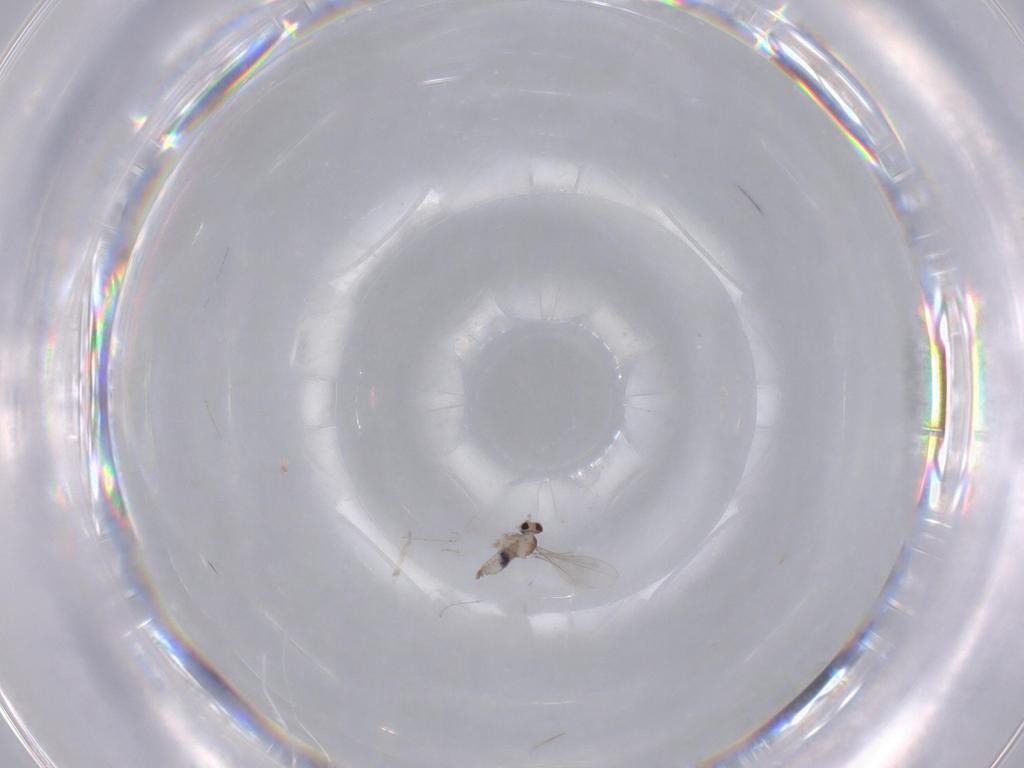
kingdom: Animalia
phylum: Arthropoda
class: Insecta
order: Diptera
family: Cecidomyiidae
